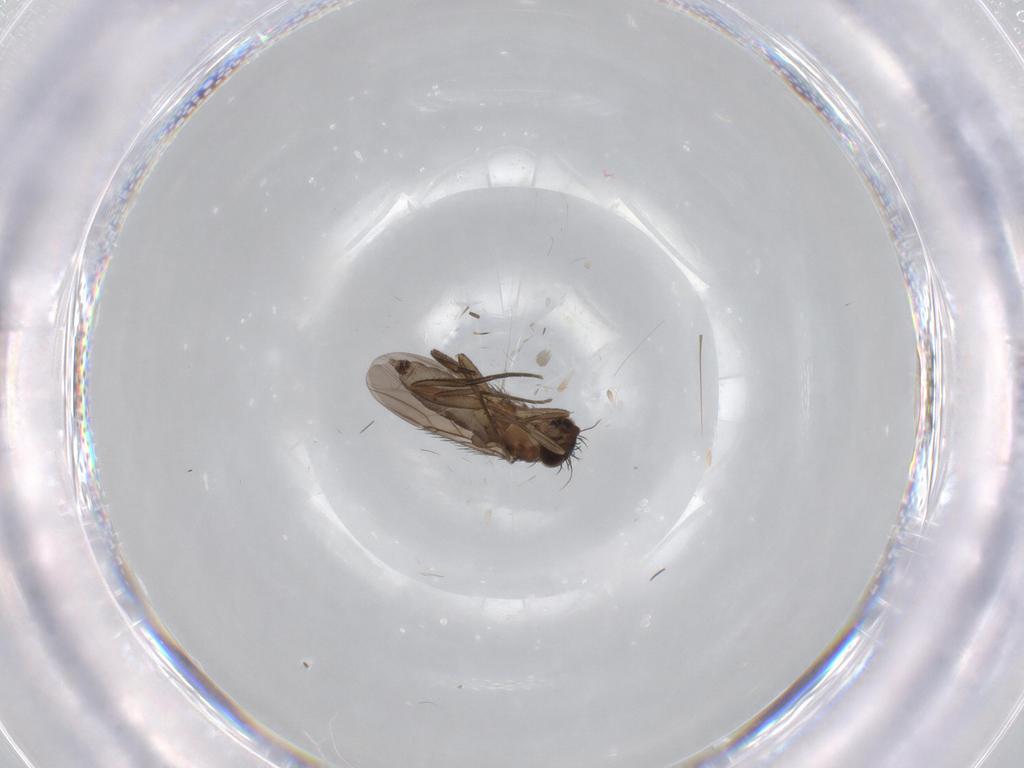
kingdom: Animalia
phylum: Arthropoda
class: Insecta
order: Diptera
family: Phoridae
